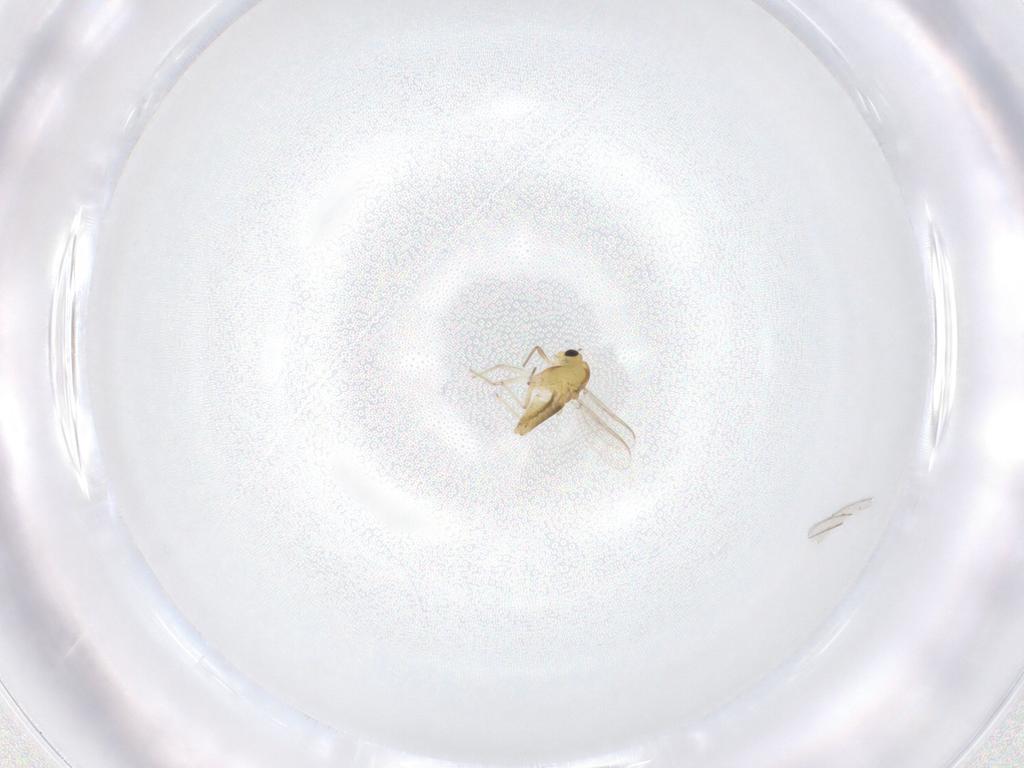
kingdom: Animalia
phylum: Arthropoda
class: Insecta
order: Diptera
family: Chironomidae
